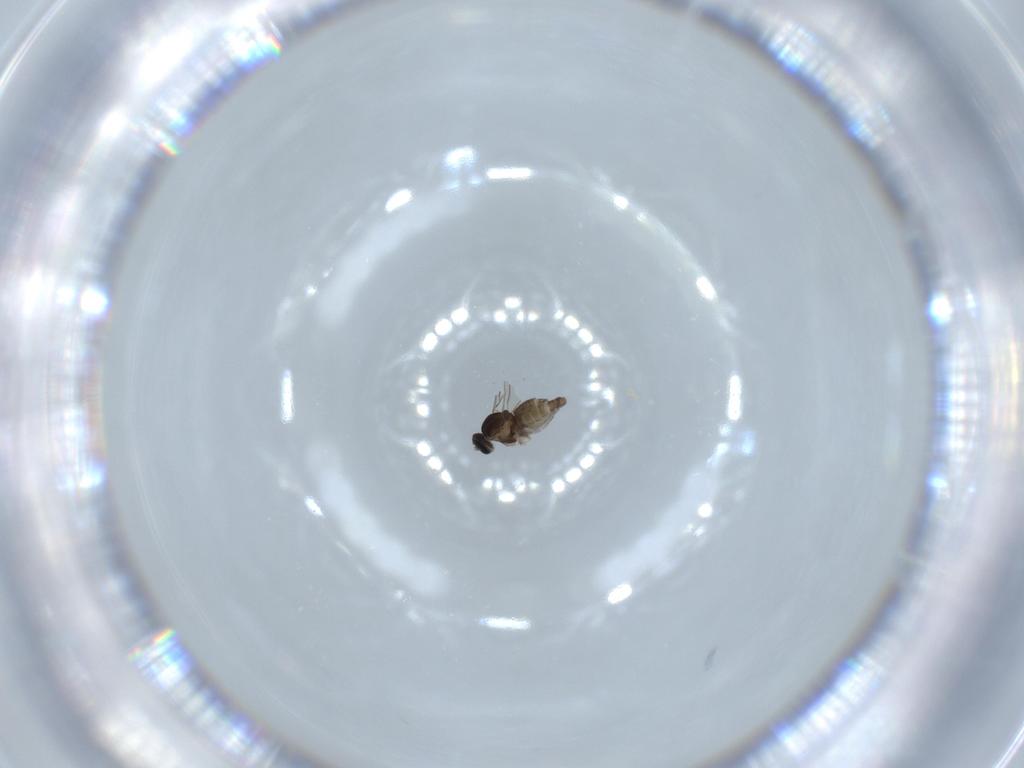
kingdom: Animalia
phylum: Arthropoda
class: Insecta
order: Diptera
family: Cecidomyiidae
